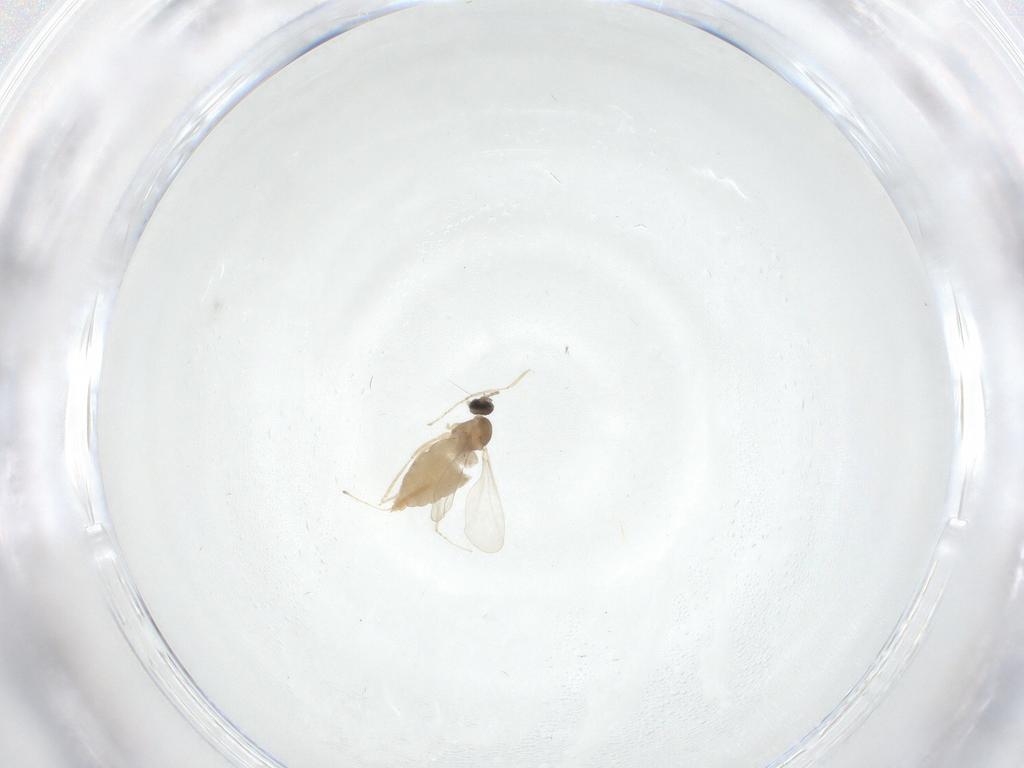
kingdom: Animalia
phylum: Arthropoda
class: Insecta
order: Diptera
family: Cecidomyiidae
